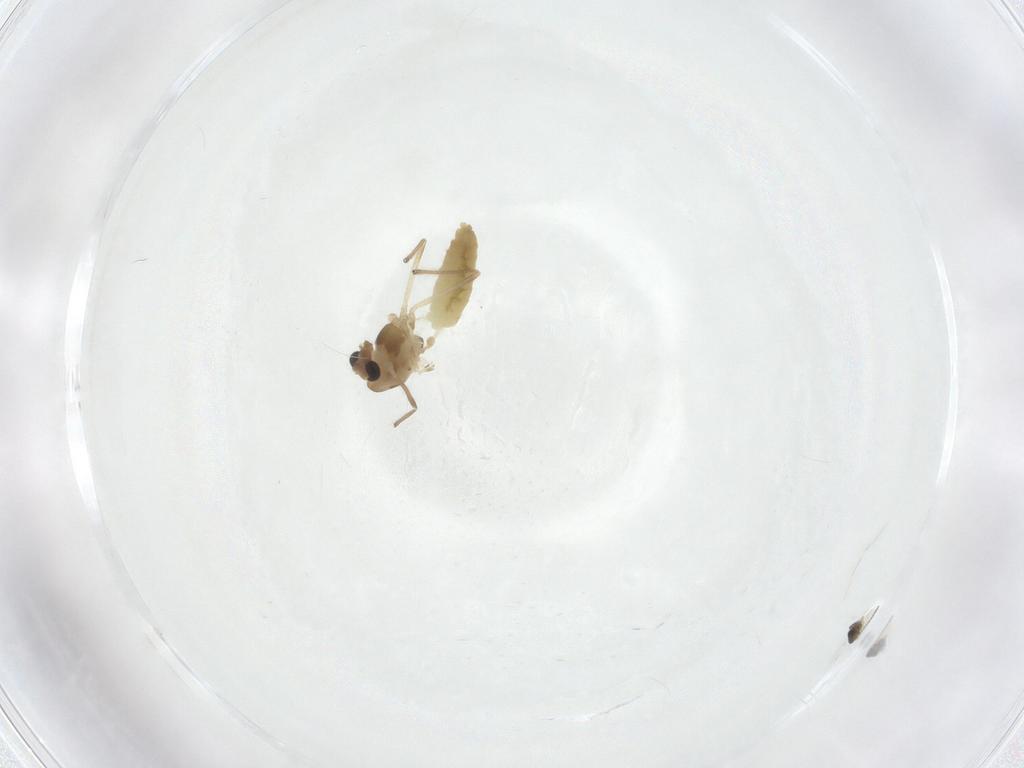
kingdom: Animalia
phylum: Arthropoda
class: Insecta
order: Diptera
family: Chironomidae
